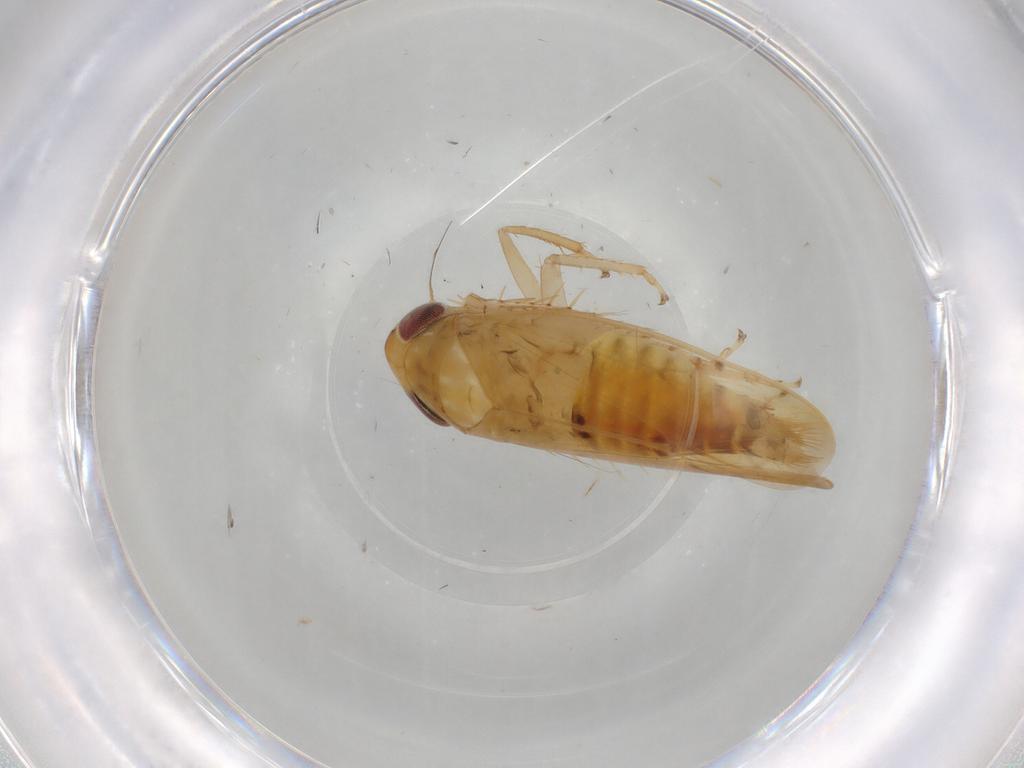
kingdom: Animalia
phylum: Arthropoda
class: Insecta
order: Hemiptera
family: Cicadellidae
